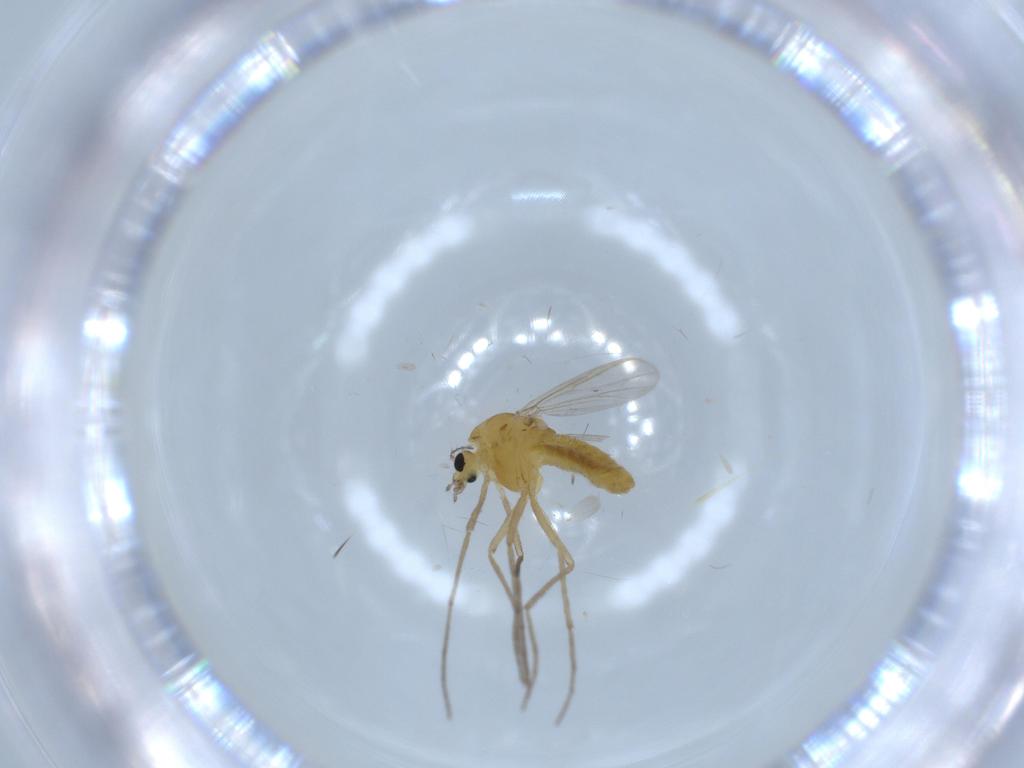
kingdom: Animalia
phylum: Arthropoda
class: Insecta
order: Diptera
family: Chironomidae
